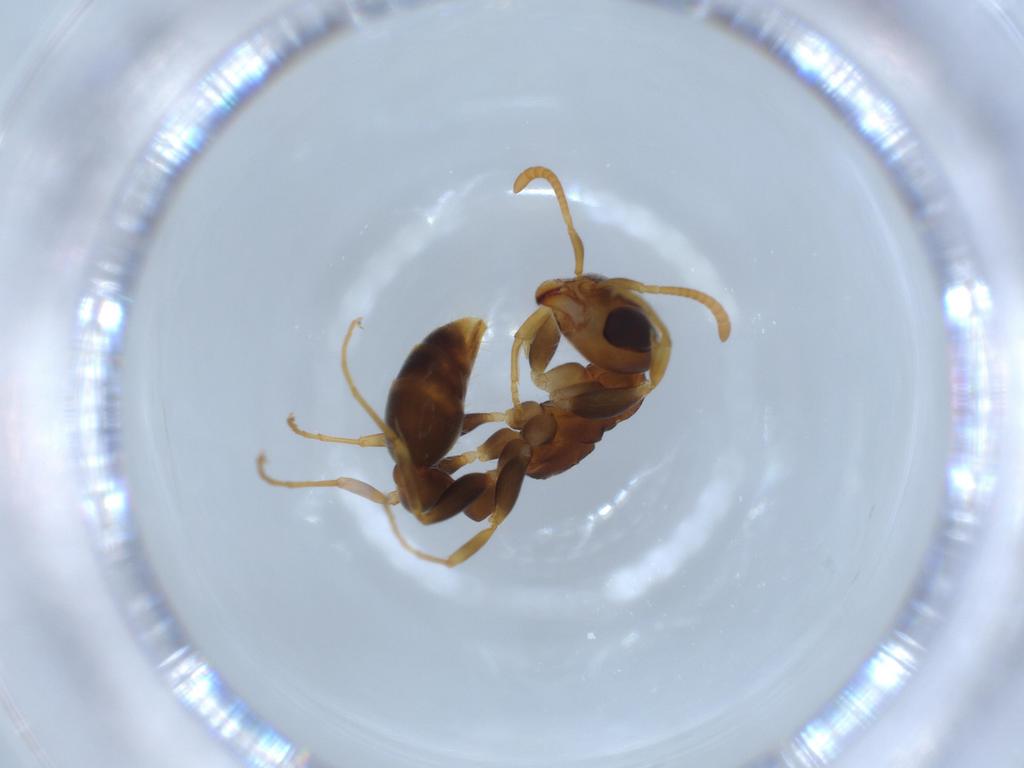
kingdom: Animalia
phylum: Arthropoda
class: Insecta
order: Hymenoptera
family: Formicidae
